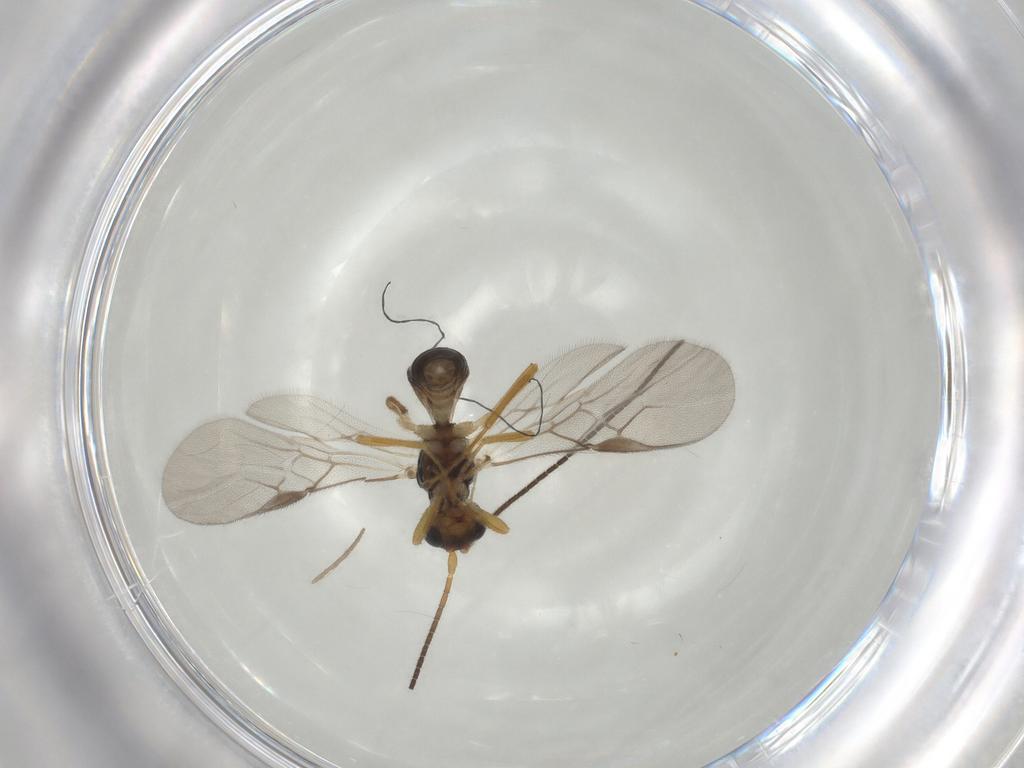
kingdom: Animalia
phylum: Arthropoda
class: Insecta
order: Hymenoptera
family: Braconidae
